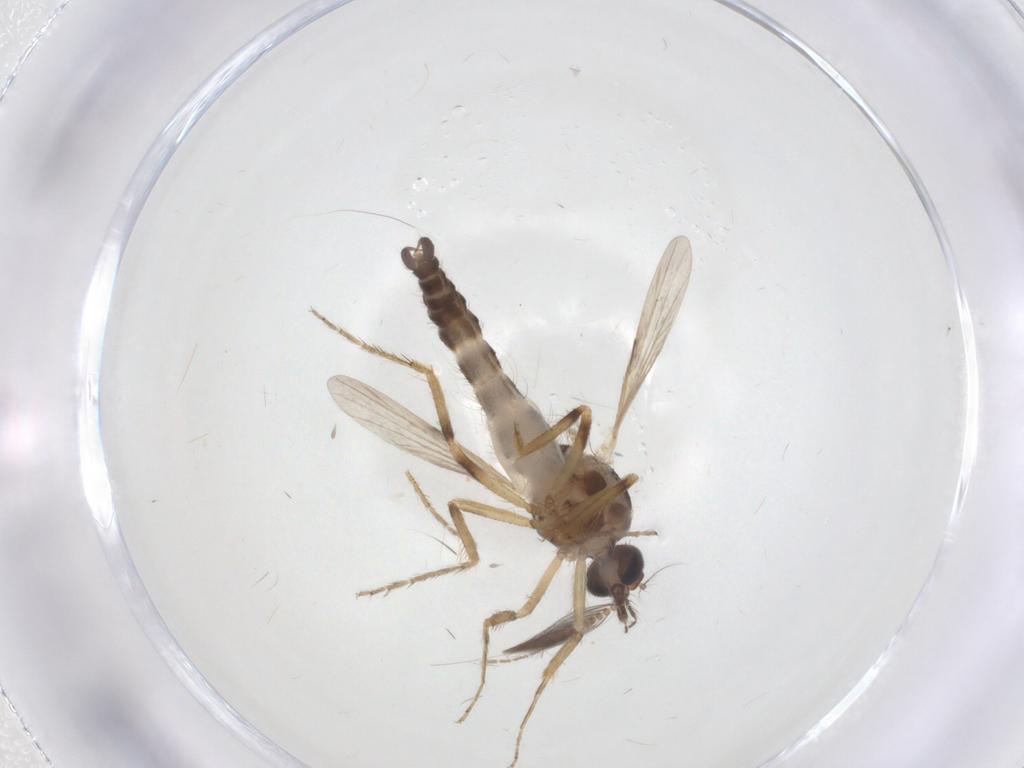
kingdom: Animalia
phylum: Arthropoda
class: Insecta
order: Diptera
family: Ceratopogonidae
